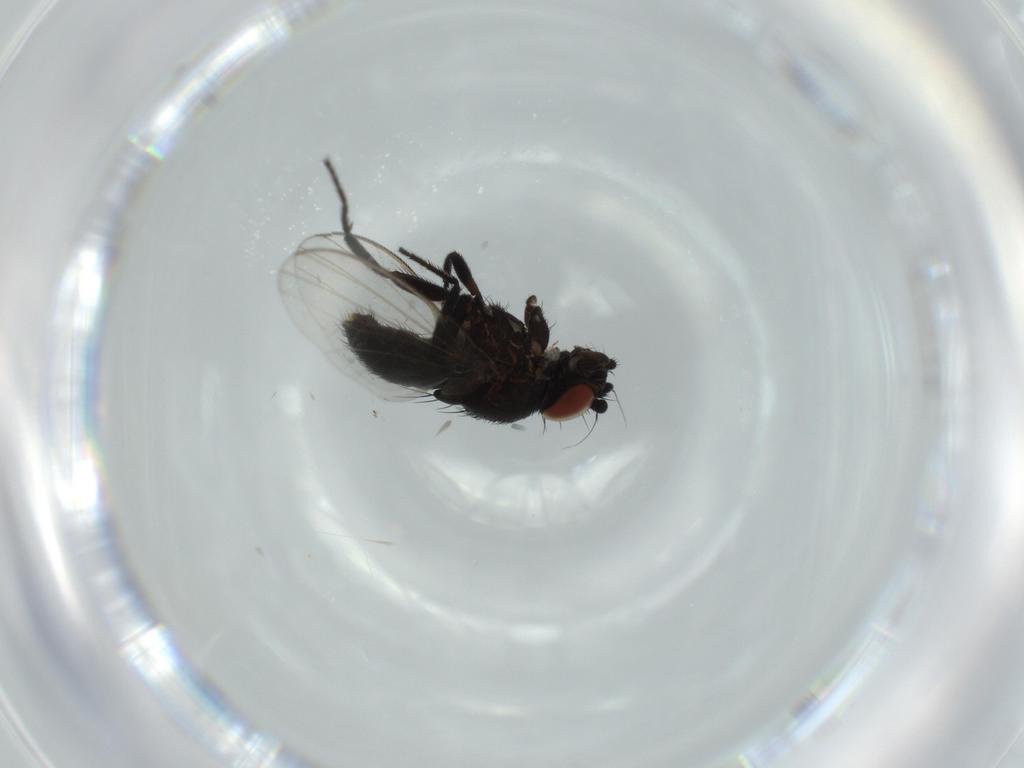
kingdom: Animalia
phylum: Arthropoda
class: Insecta
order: Diptera
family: Milichiidae
